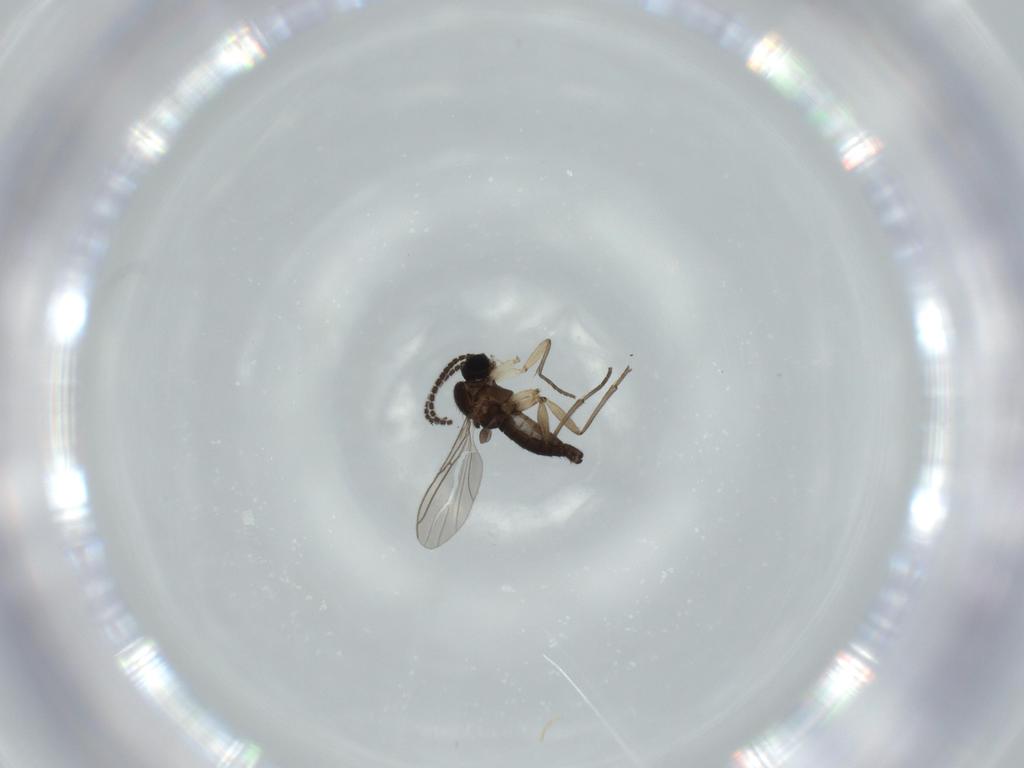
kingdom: Animalia
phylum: Arthropoda
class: Insecta
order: Diptera
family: Sciaridae
